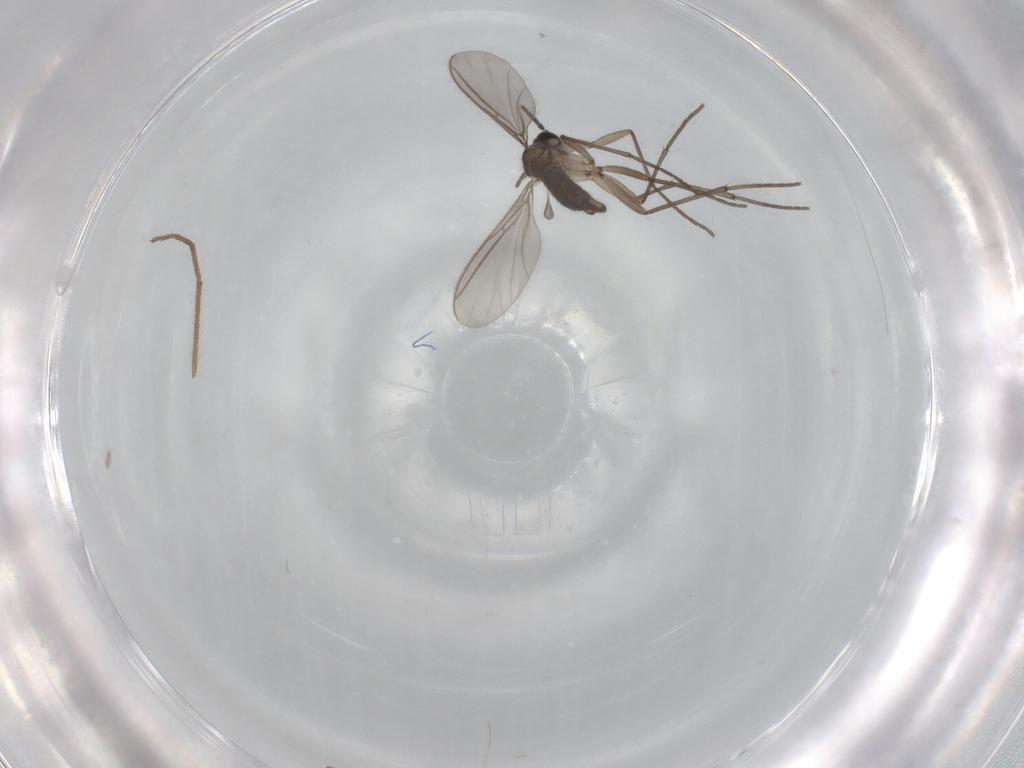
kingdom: Animalia
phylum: Arthropoda
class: Insecta
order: Diptera
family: Sciaridae
